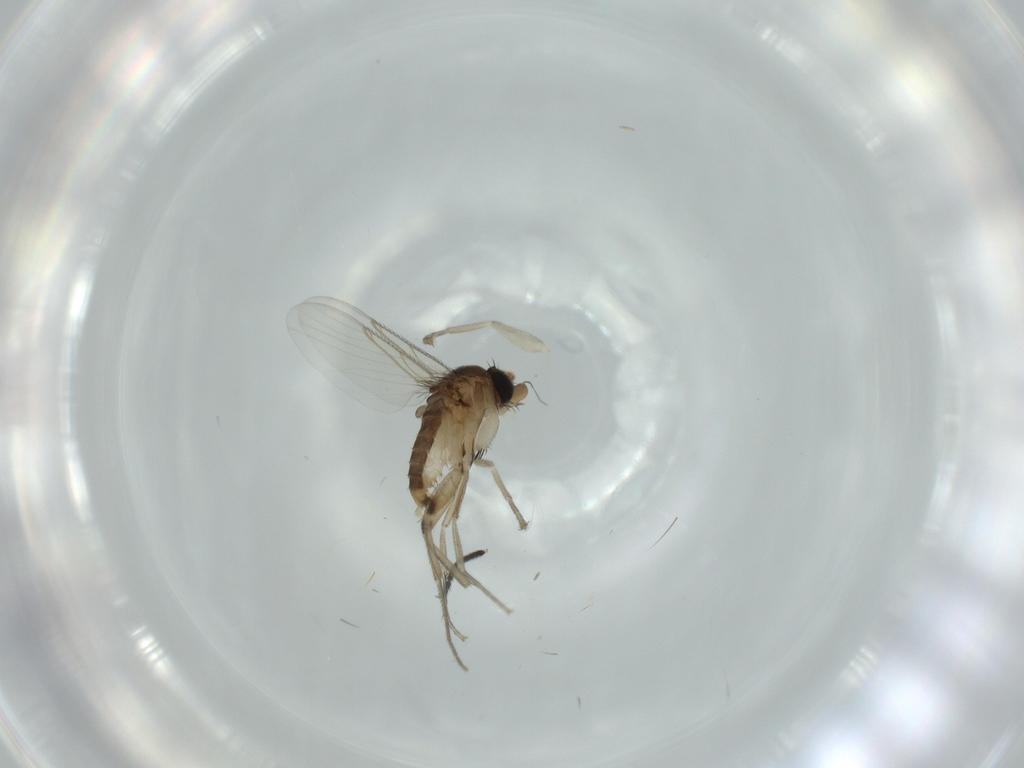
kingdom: Animalia
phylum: Arthropoda
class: Insecta
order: Diptera
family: Phoridae
